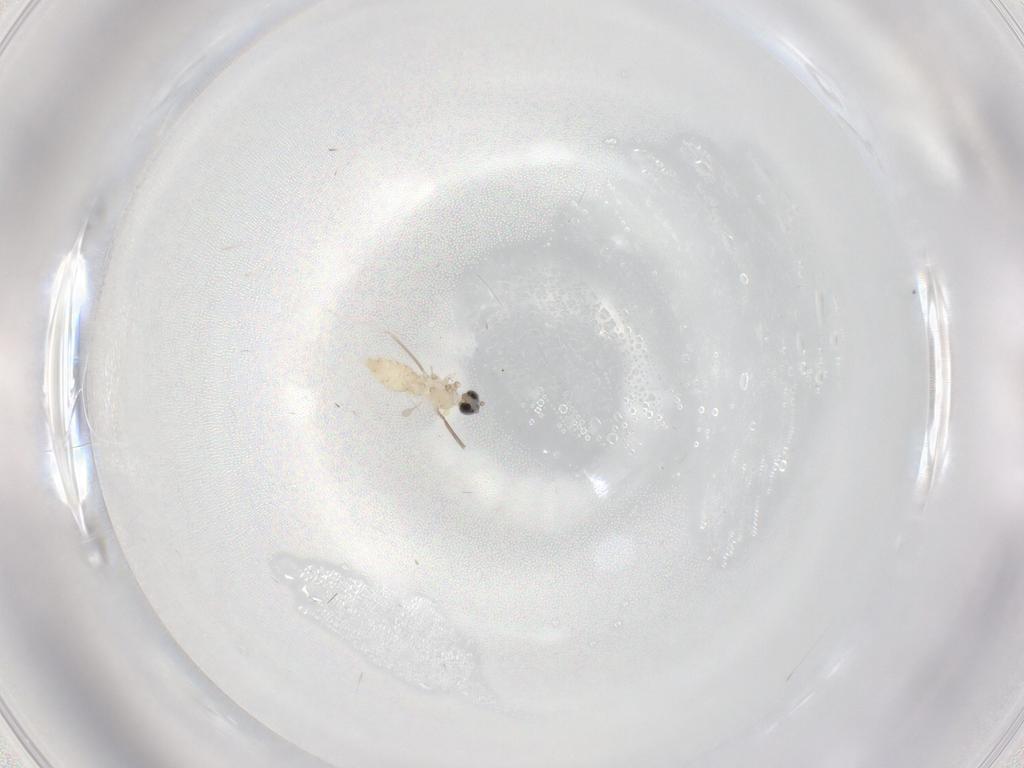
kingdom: Animalia
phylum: Arthropoda
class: Insecta
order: Diptera
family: Cecidomyiidae
